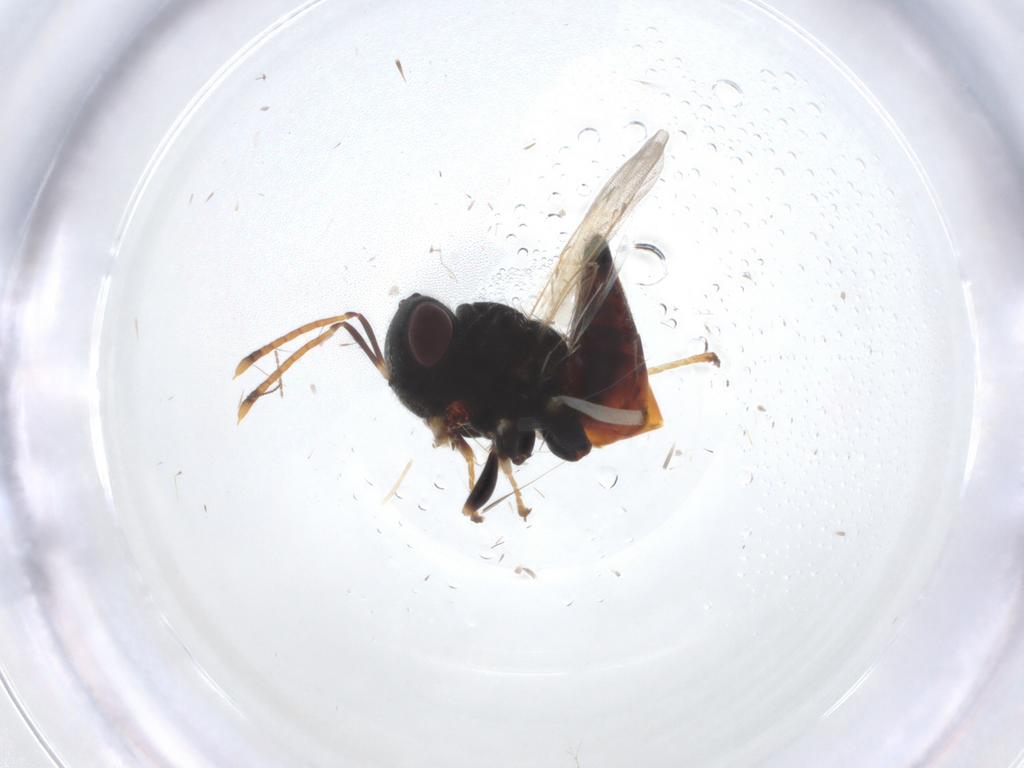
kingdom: Animalia
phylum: Arthropoda
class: Insecta
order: Hymenoptera
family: Pteromalidae
